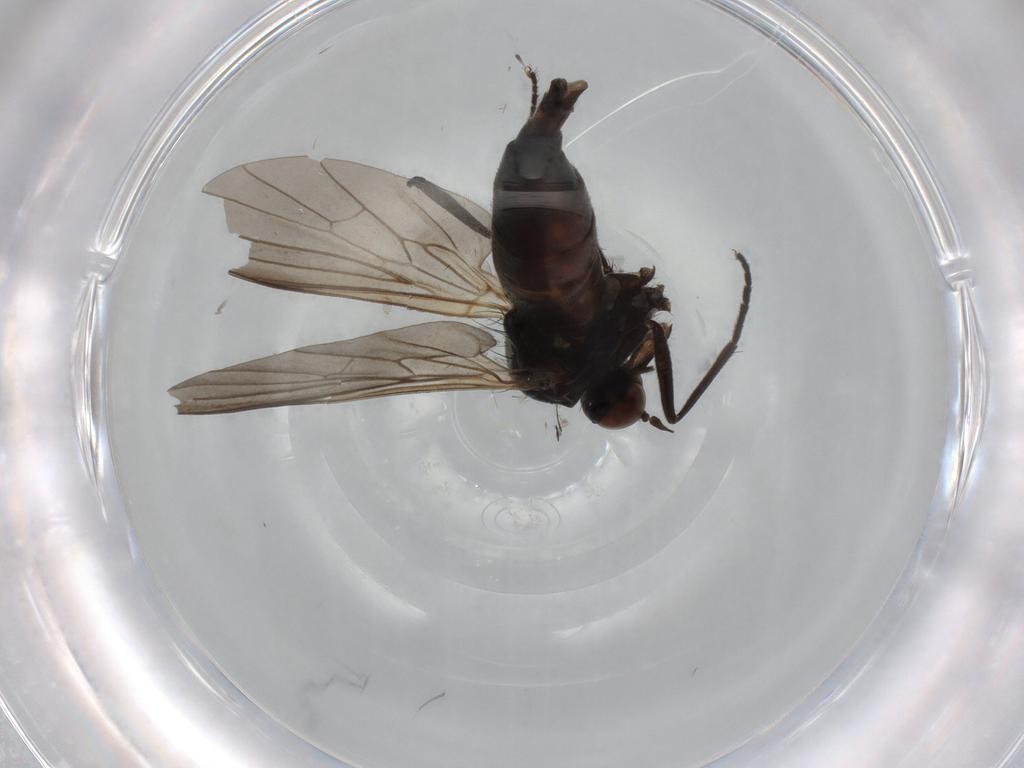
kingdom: Animalia
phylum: Arthropoda
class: Insecta
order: Diptera
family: Empididae
